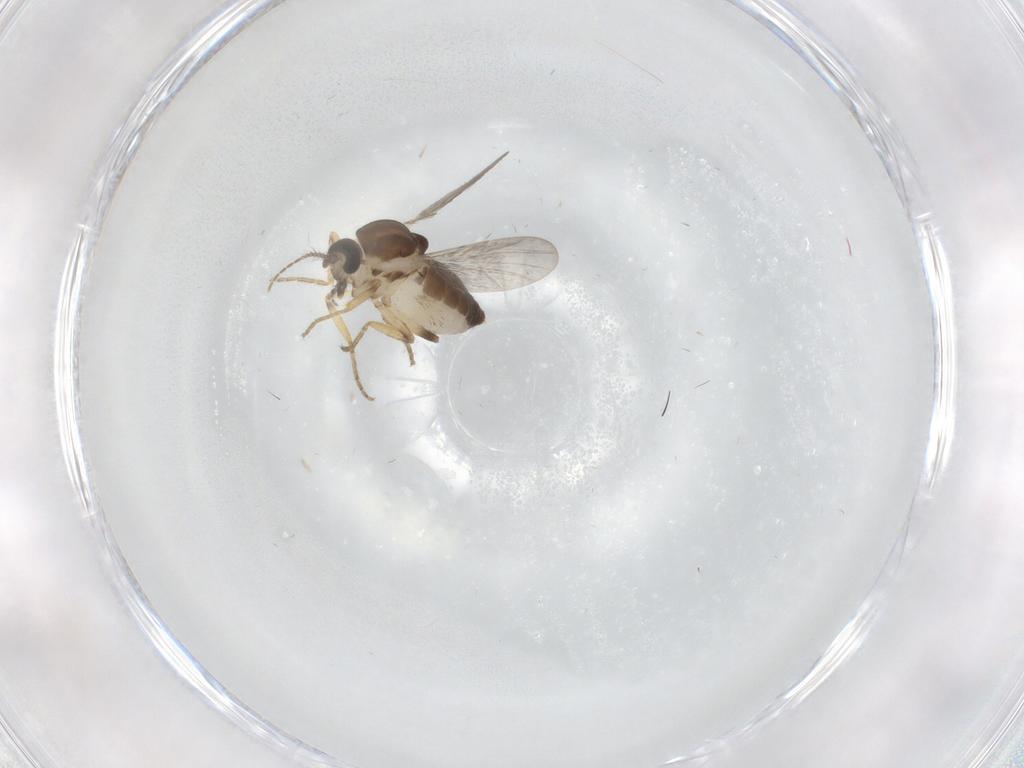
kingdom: Animalia
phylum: Arthropoda
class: Insecta
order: Diptera
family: Ceratopogonidae
